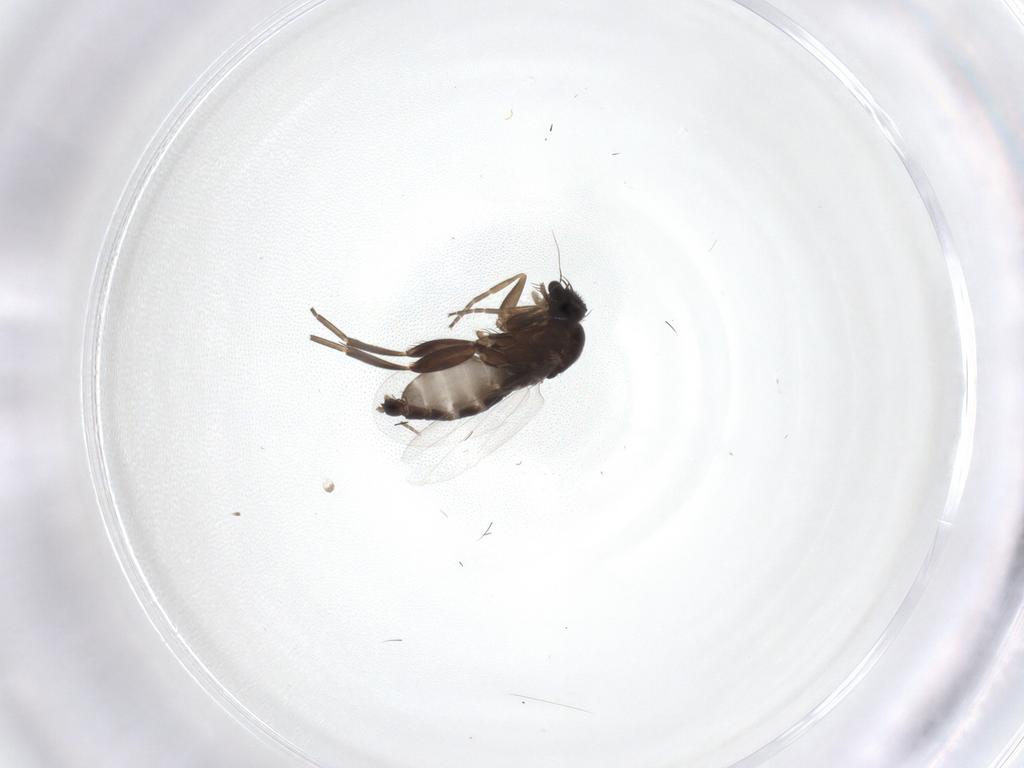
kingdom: Animalia
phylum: Arthropoda
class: Insecta
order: Diptera
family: Phoridae
